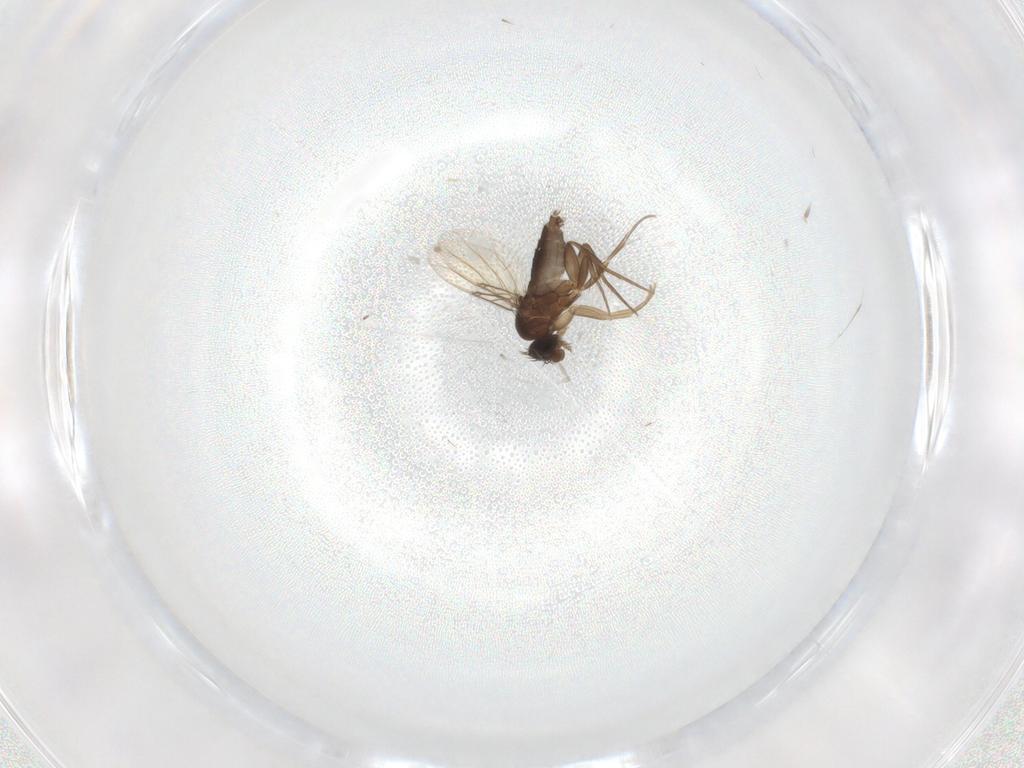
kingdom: Animalia
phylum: Arthropoda
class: Insecta
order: Diptera
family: Phoridae
